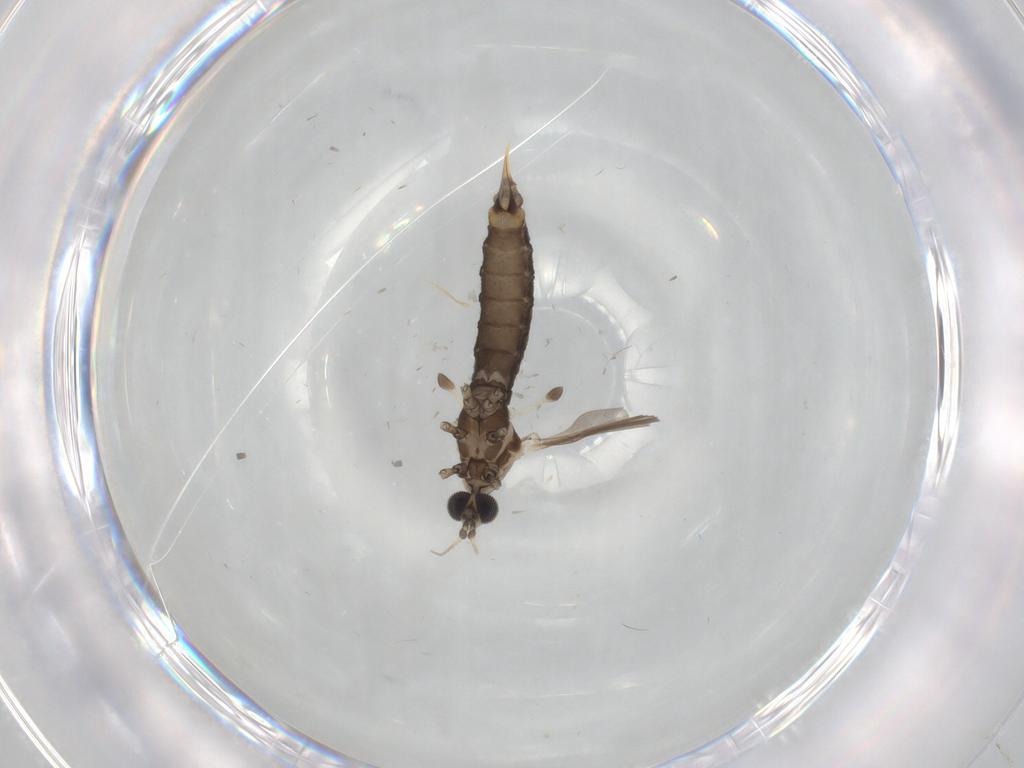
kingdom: Animalia
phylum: Arthropoda
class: Insecta
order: Diptera
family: Limoniidae
